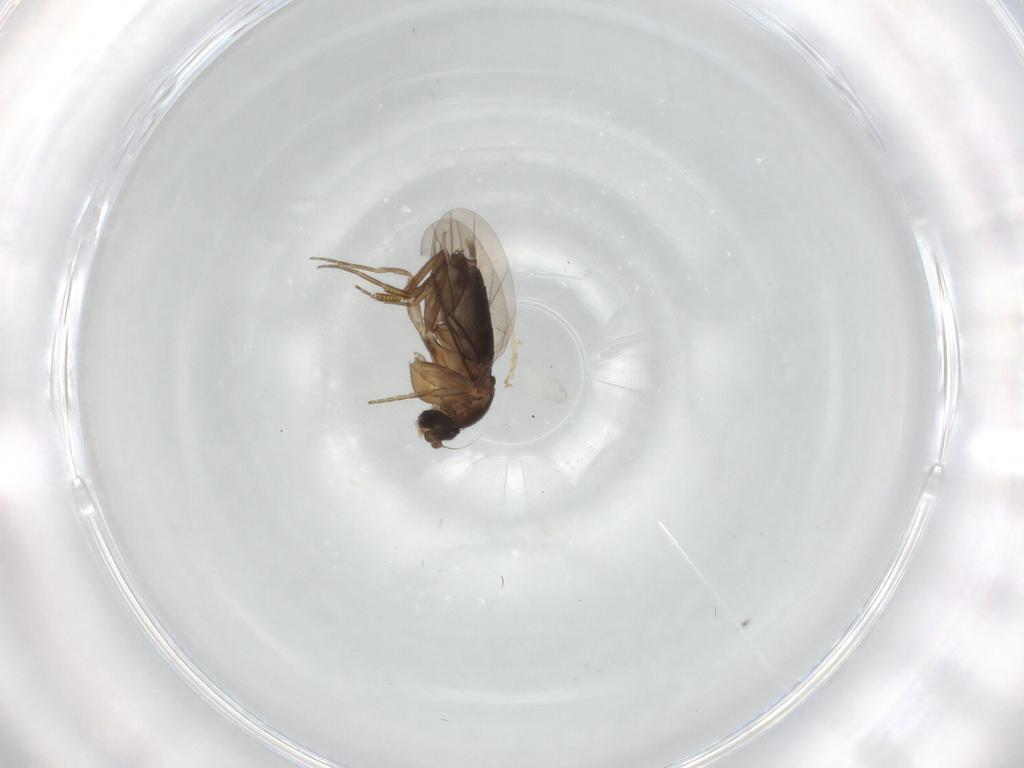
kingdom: Animalia
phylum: Arthropoda
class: Insecta
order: Diptera
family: Phoridae
